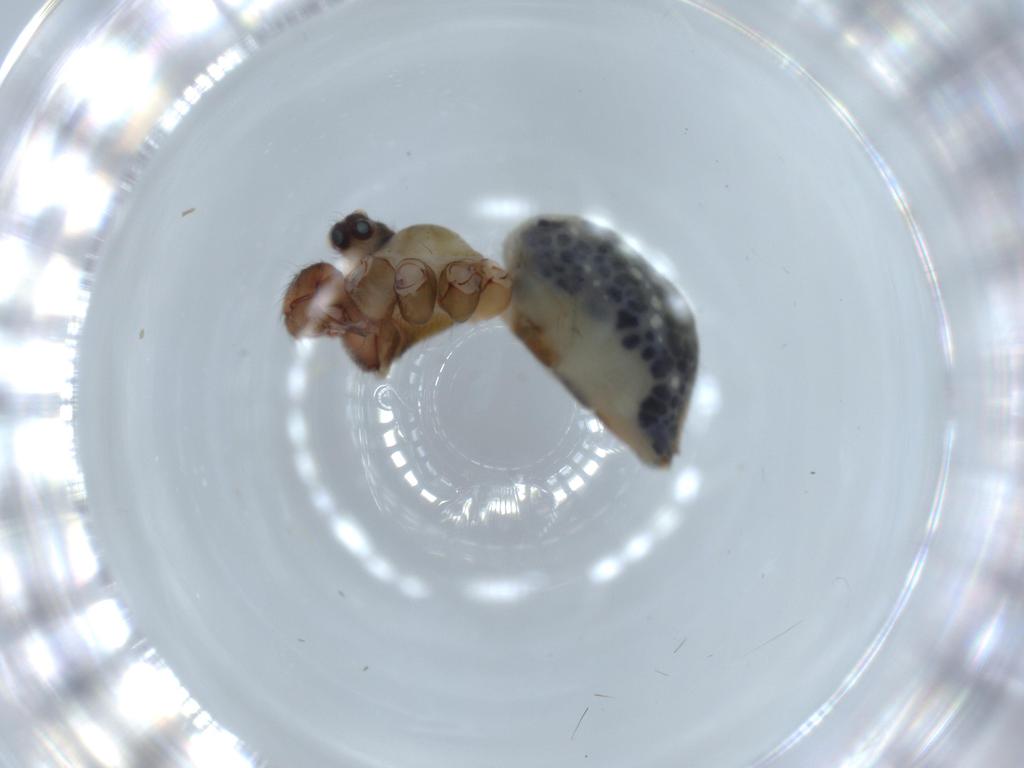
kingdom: Animalia
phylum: Arthropoda
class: Arachnida
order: Araneae
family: Pholcidae
